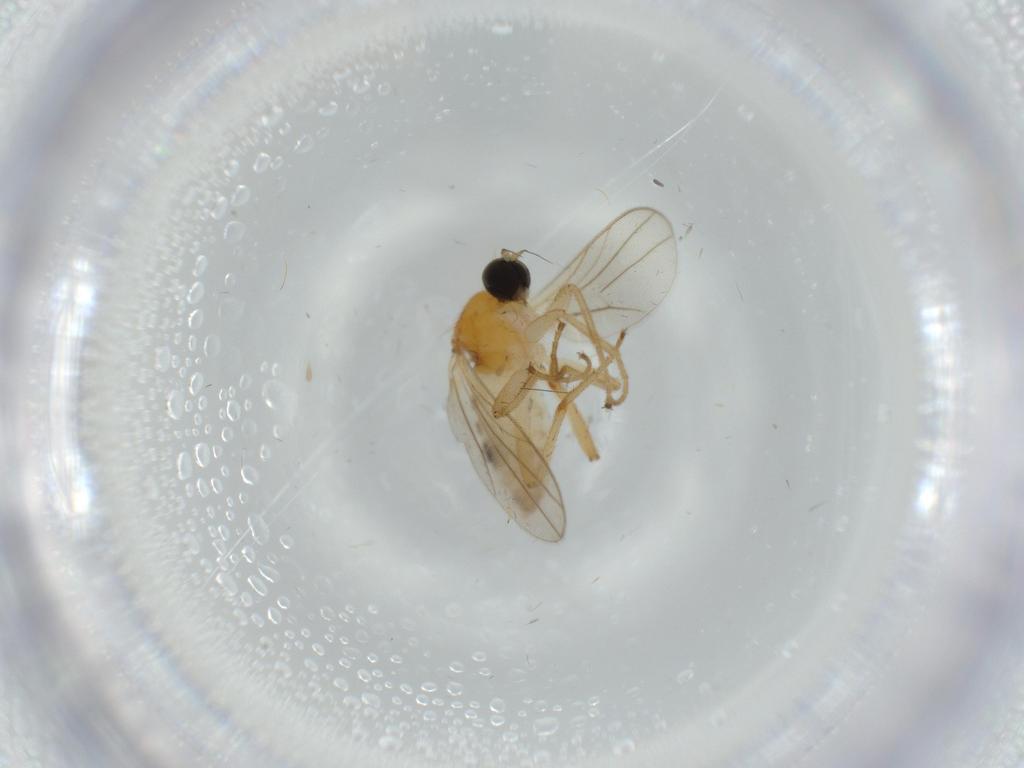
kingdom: Animalia
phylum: Arthropoda
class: Insecta
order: Diptera
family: Hybotidae
